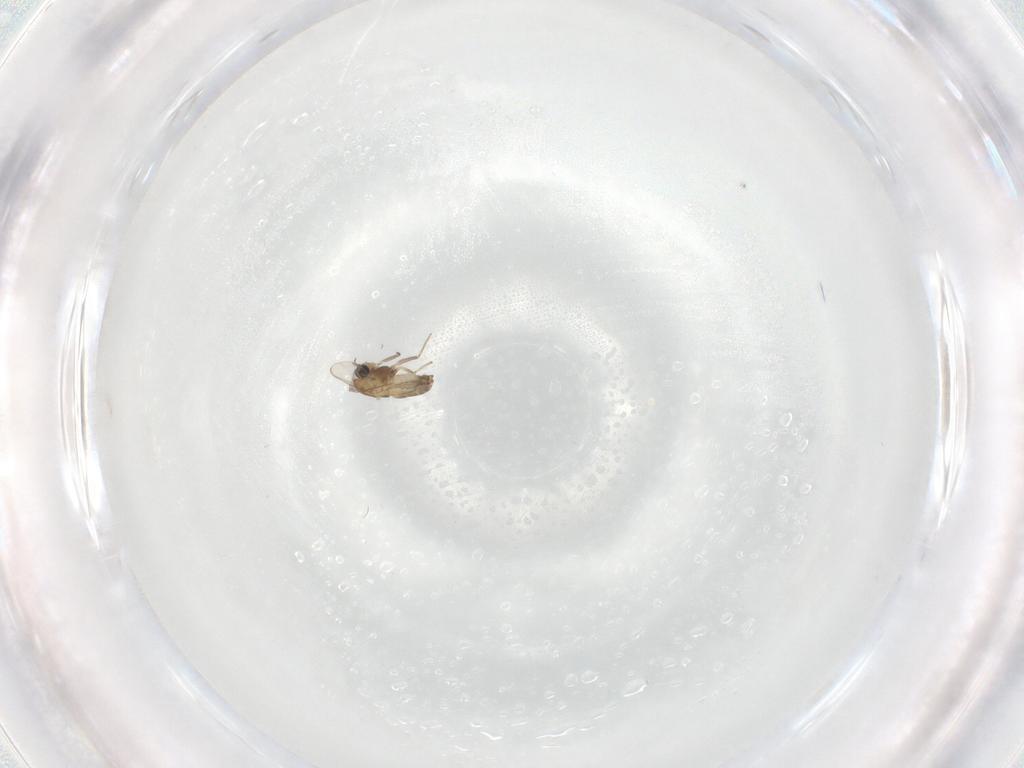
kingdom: Animalia
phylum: Arthropoda
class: Insecta
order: Diptera
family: Chironomidae
